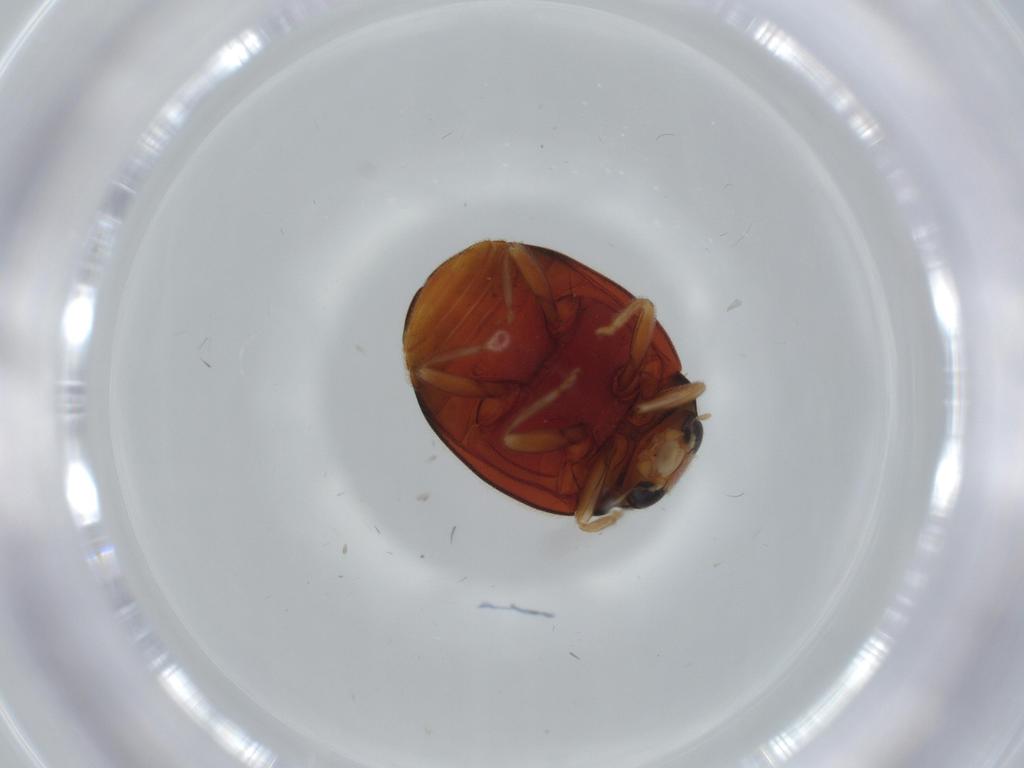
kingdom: Animalia
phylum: Arthropoda
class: Insecta
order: Coleoptera
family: Coccinellidae
